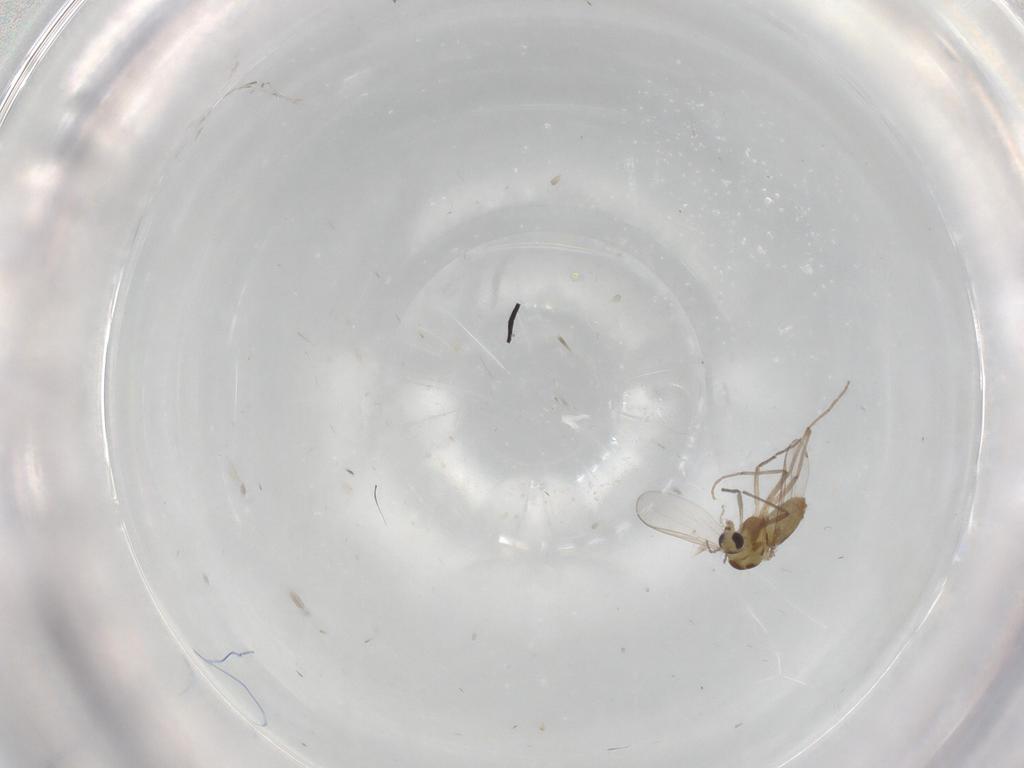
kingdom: Animalia
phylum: Arthropoda
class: Insecta
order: Diptera
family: Chironomidae
